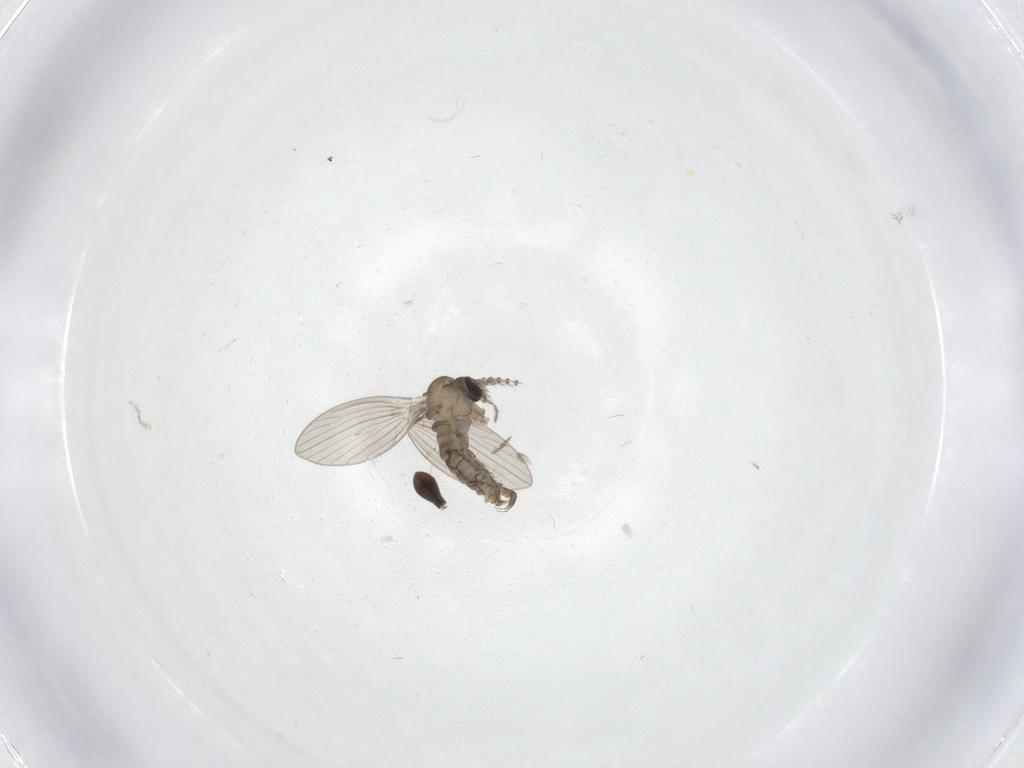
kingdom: Animalia
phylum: Arthropoda
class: Insecta
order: Diptera
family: Psychodidae
